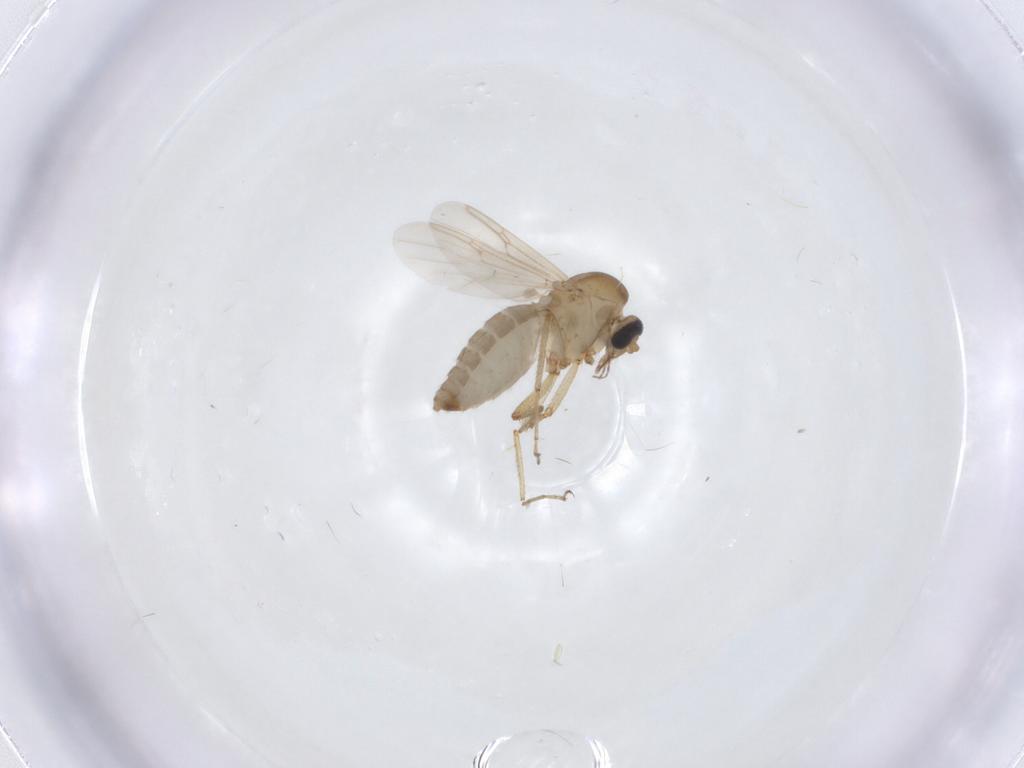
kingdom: Animalia
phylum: Arthropoda
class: Insecta
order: Diptera
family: Ceratopogonidae
